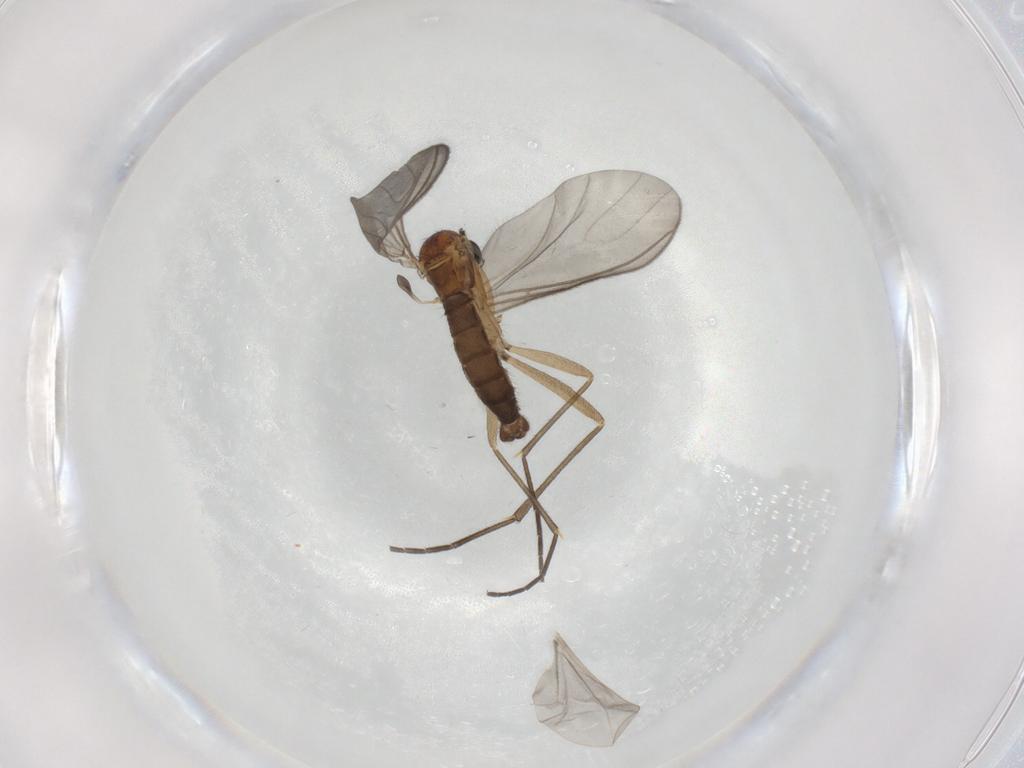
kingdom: Animalia
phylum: Arthropoda
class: Insecta
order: Diptera
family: Sciaridae
